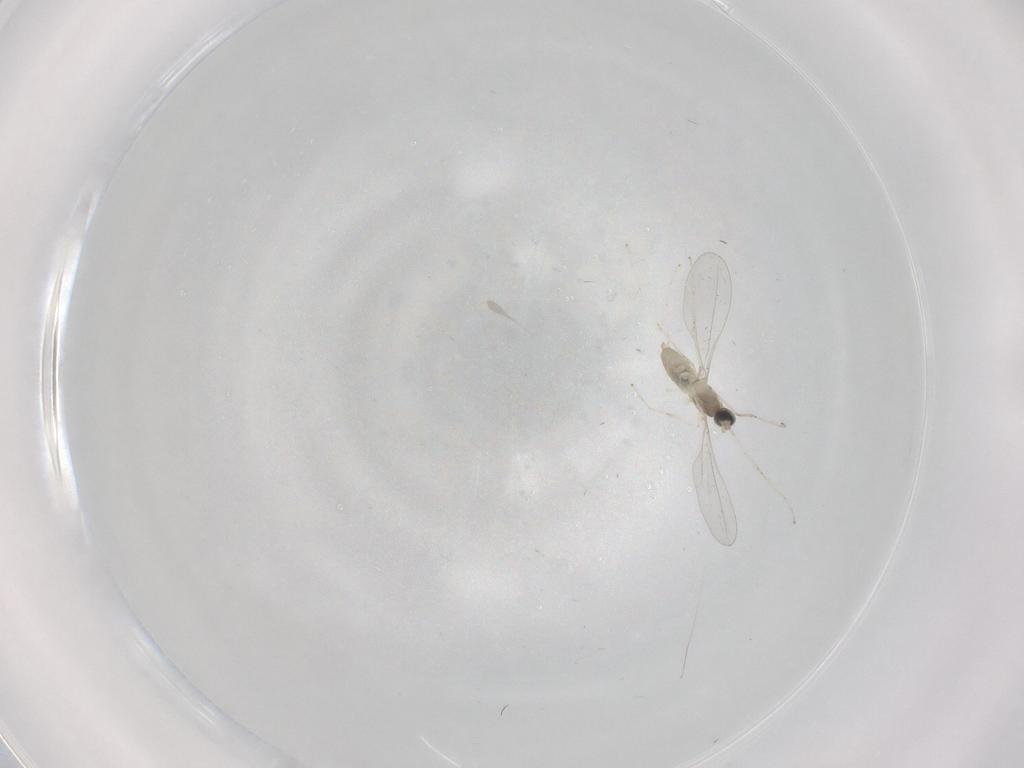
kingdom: Animalia
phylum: Arthropoda
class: Insecta
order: Diptera
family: Cecidomyiidae
